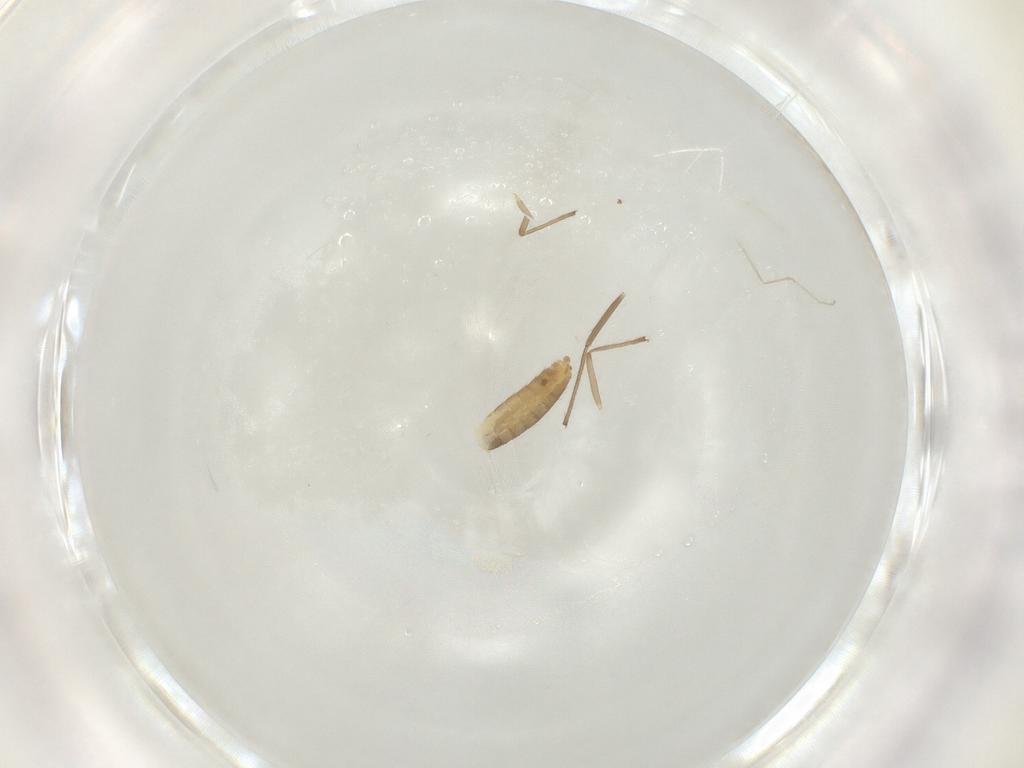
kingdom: Animalia
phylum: Arthropoda
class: Insecta
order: Diptera
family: Chironomidae
